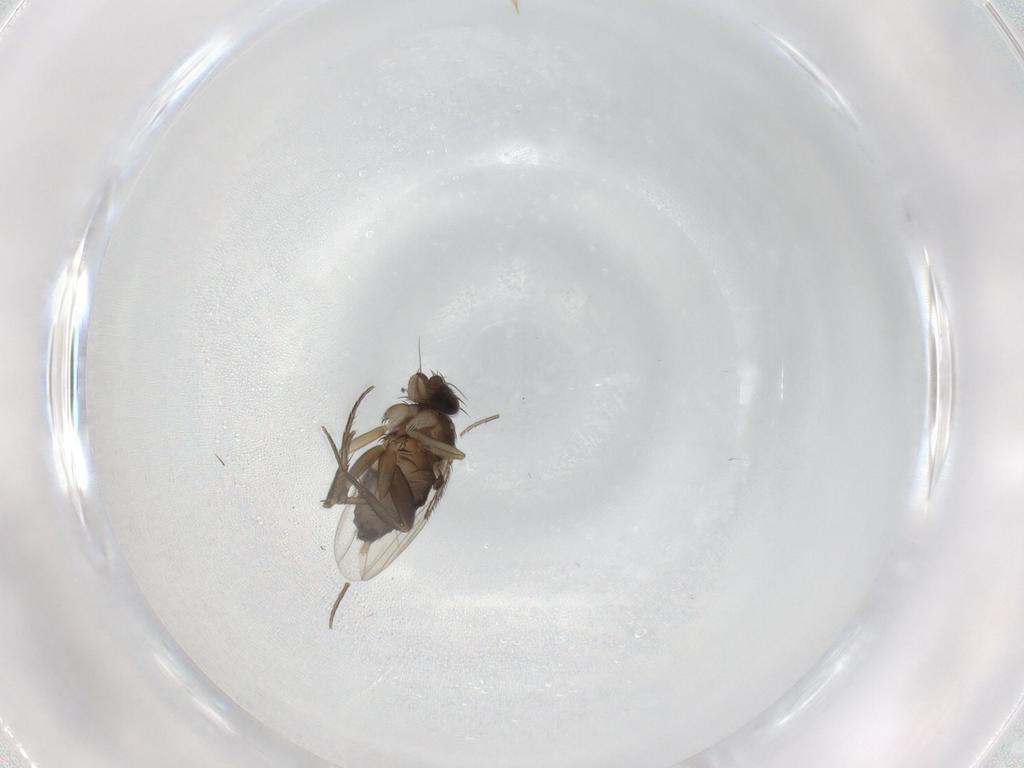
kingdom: Animalia
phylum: Arthropoda
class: Insecta
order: Diptera
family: Phoridae
